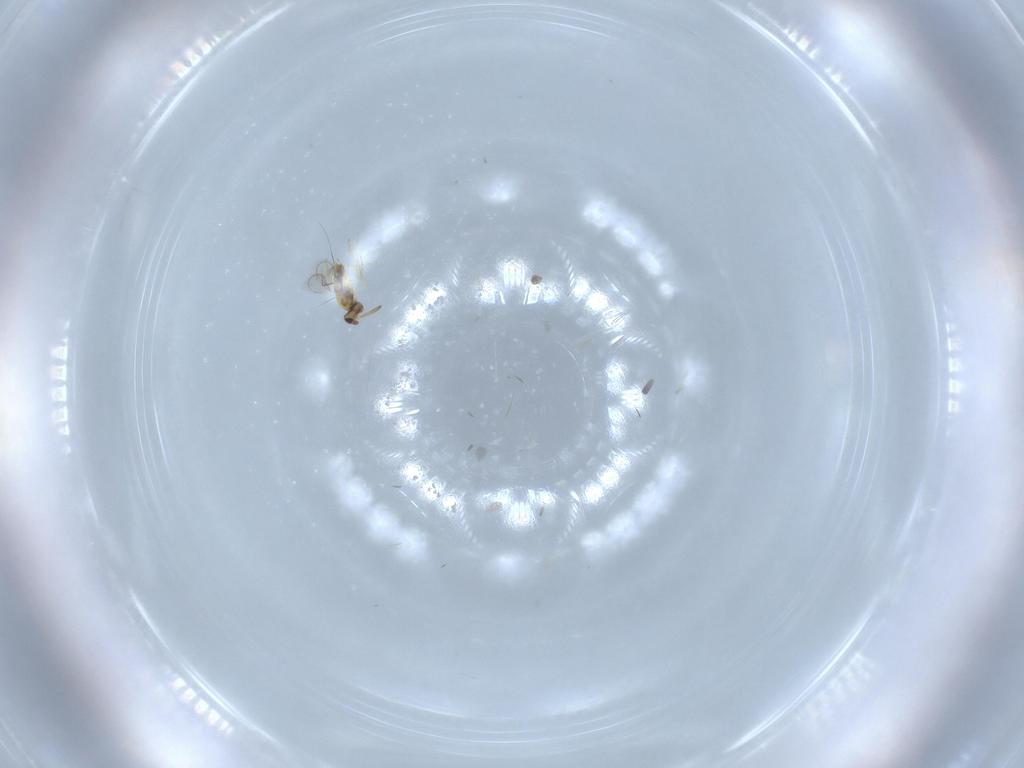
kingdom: Animalia
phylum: Arthropoda
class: Insecta
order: Hymenoptera
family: Aphelinidae
